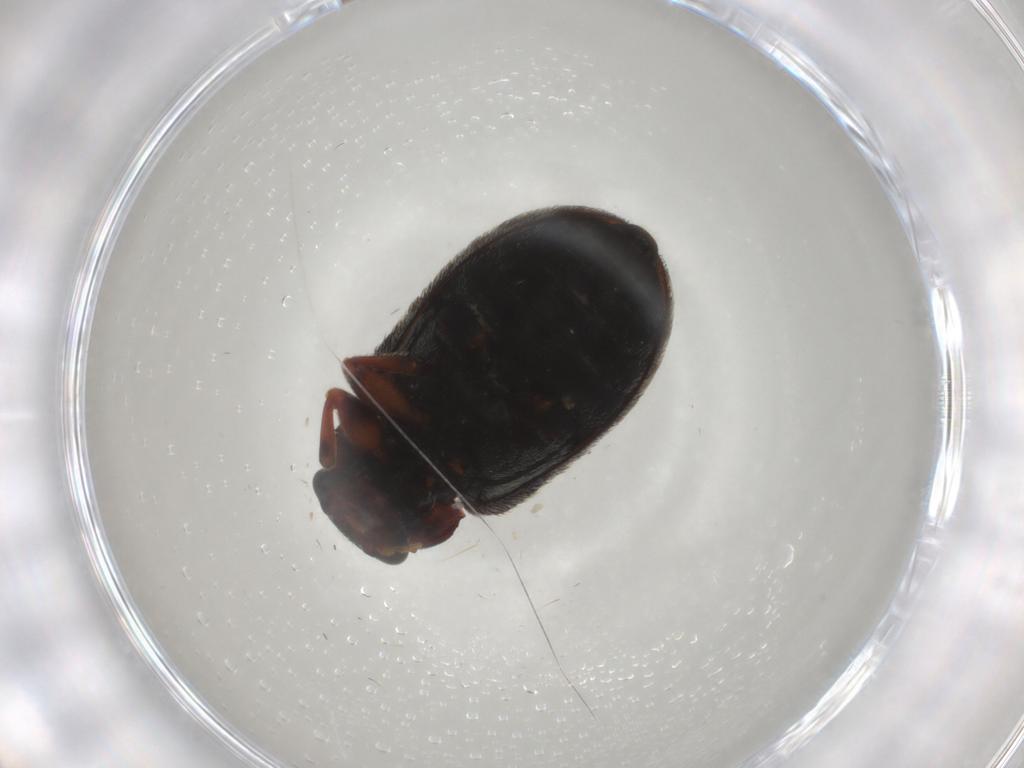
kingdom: Animalia
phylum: Arthropoda
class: Insecta
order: Coleoptera
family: Chrysomelidae
